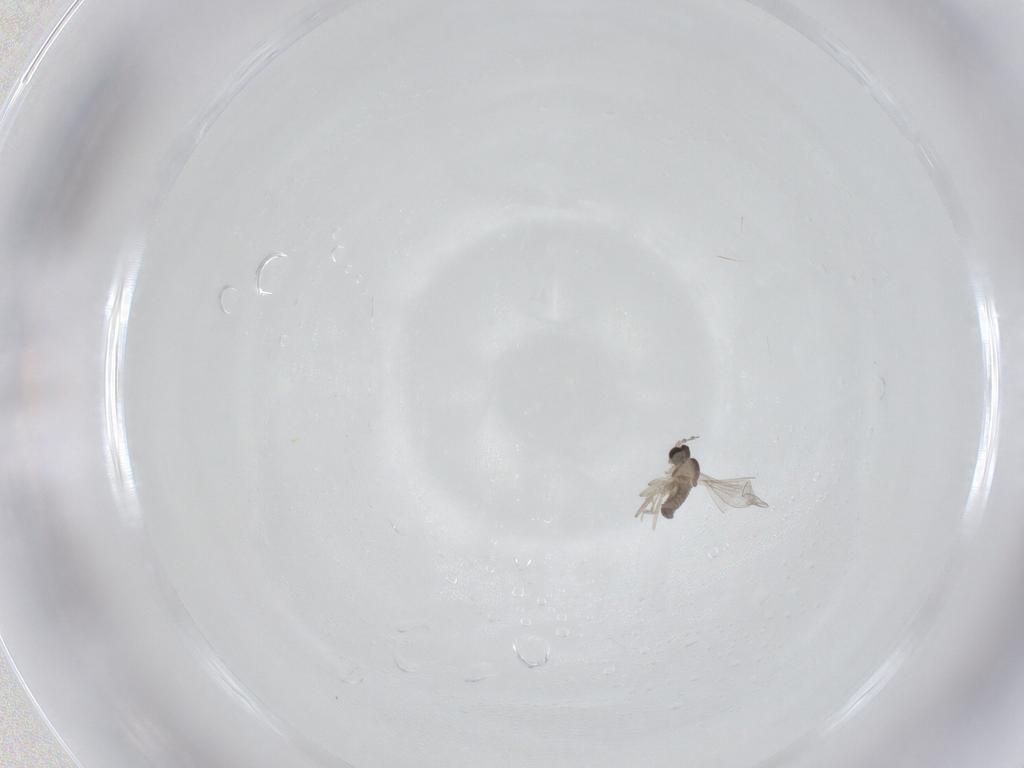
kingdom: Animalia
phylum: Arthropoda
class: Insecta
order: Diptera
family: Cecidomyiidae
